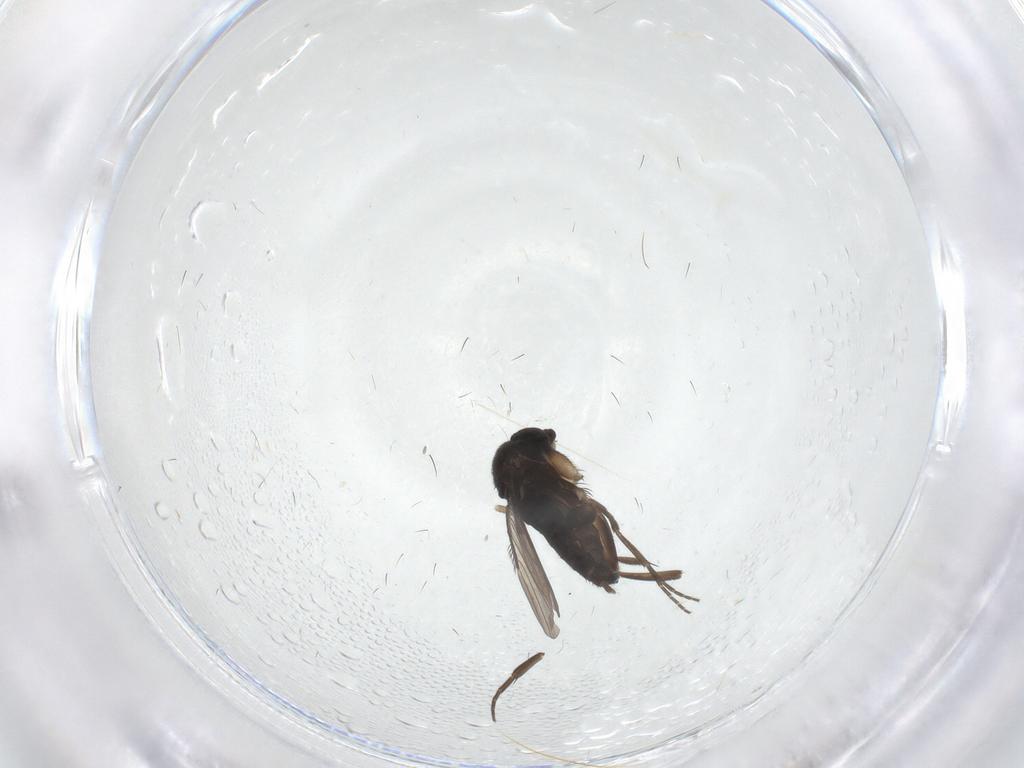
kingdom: Animalia
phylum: Arthropoda
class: Insecta
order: Diptera
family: Phoridae
